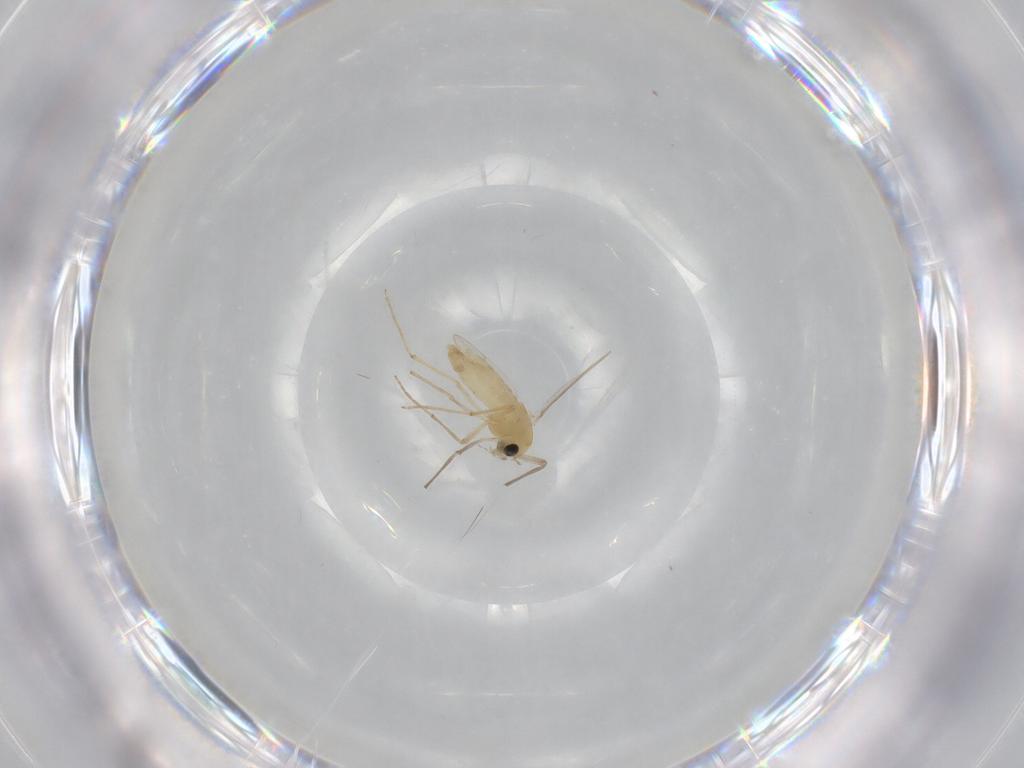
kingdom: Animalia
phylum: Arthropoda
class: Insecta
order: Diptera
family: Chironomidae
